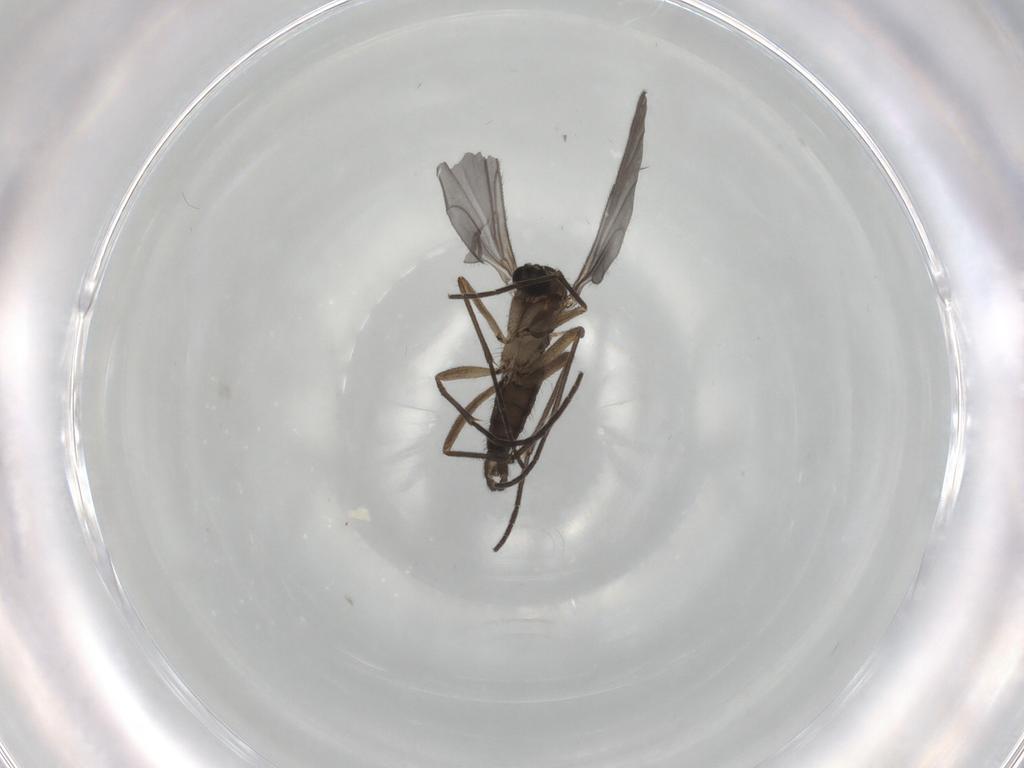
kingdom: Animalia
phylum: Arthropoda
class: Insecta
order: Diptera
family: Sciaridae
